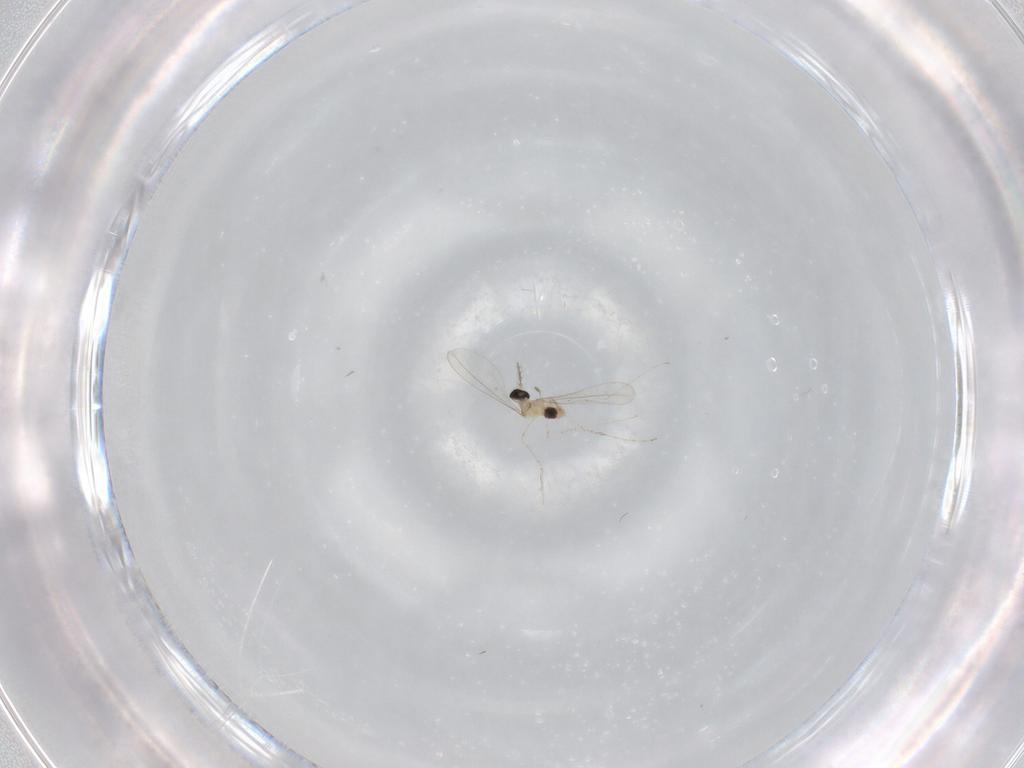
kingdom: Animalia
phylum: Arthropoda
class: Insecta
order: Diptera
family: Cecidomyiidae
